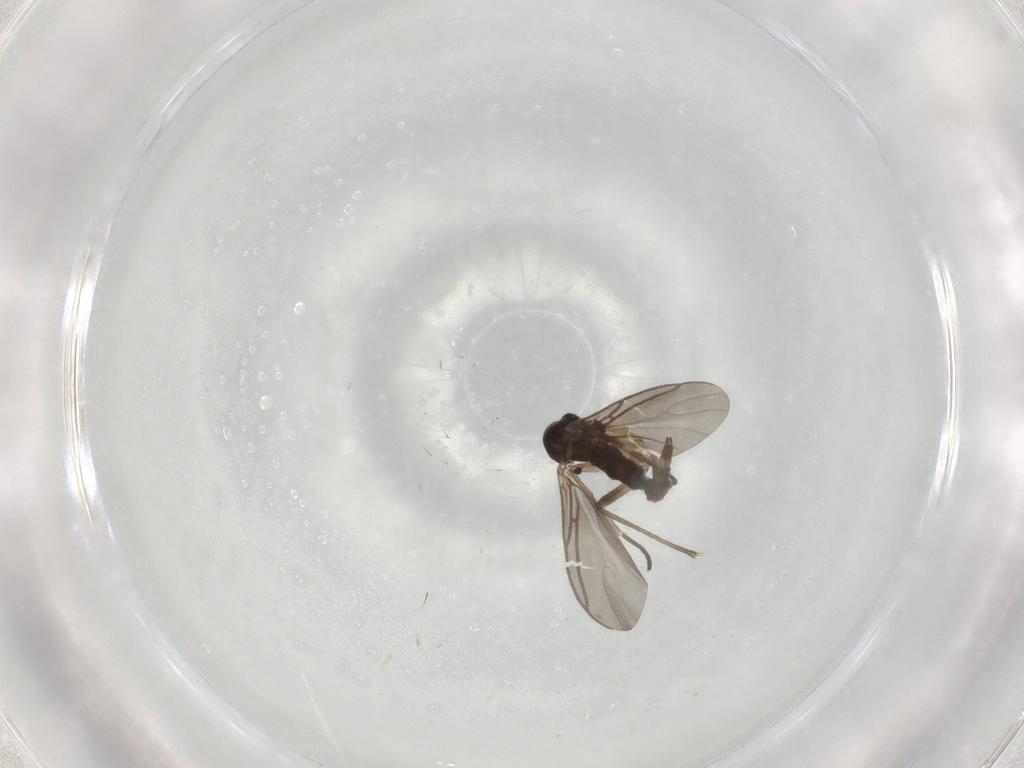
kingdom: Animalia
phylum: Arthropoda
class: Insecta
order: Diptera
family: Sciaridae
